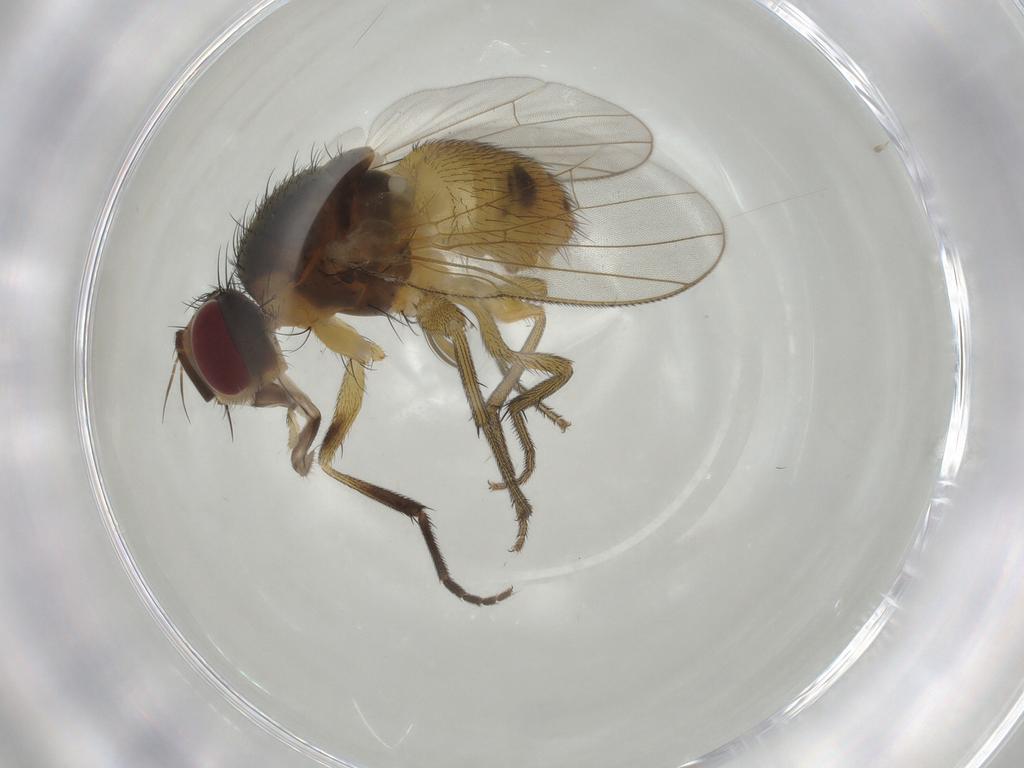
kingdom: Animalia
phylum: Arthropoda
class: Insecta
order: Diptera
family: Muscidae
